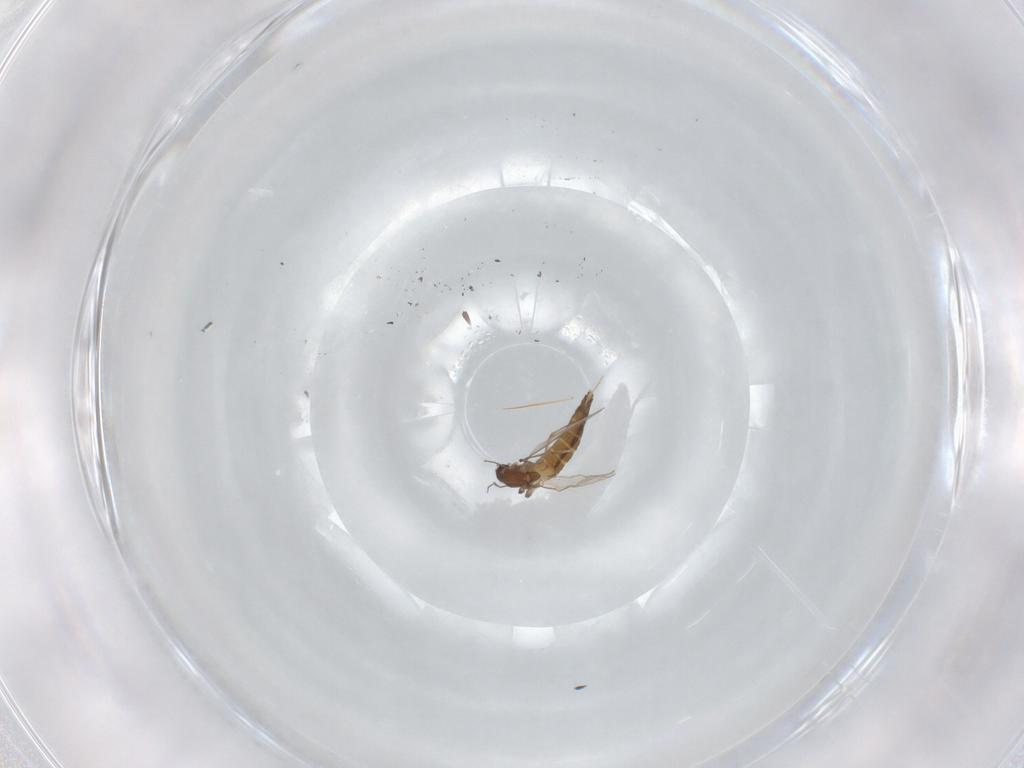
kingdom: Animalia
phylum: Arthropoda
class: Insecta
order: Diptera
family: Chironomidae
